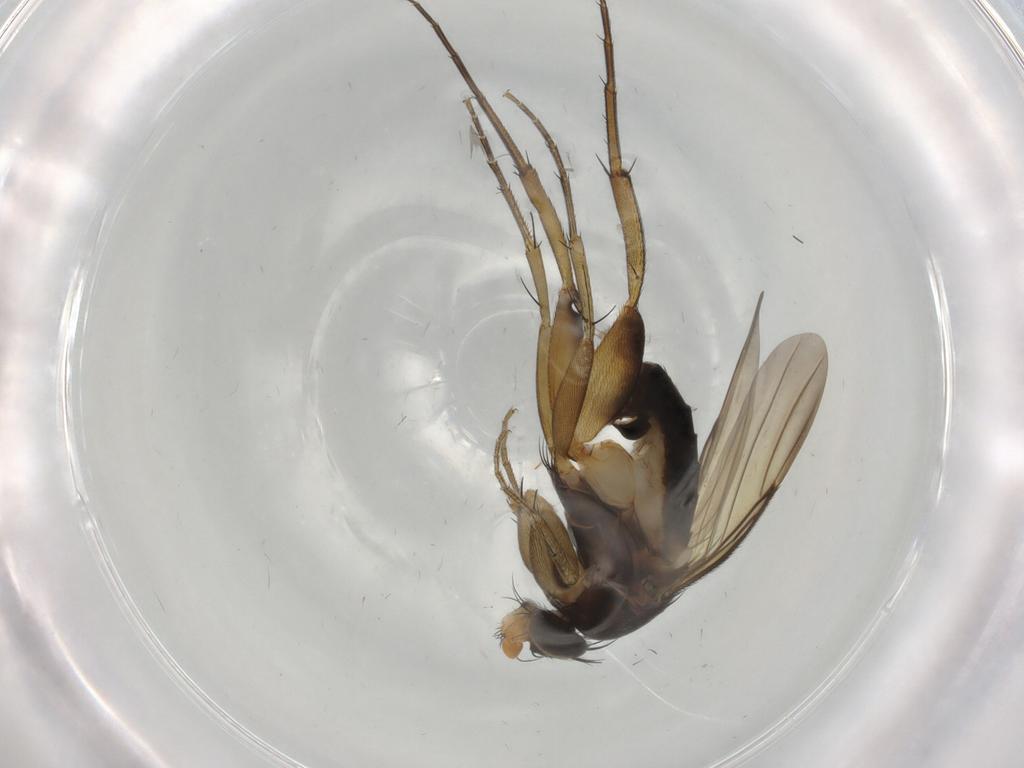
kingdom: Animalia
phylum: Arthropoda
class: Insecta
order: Diptera
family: Phoridae
